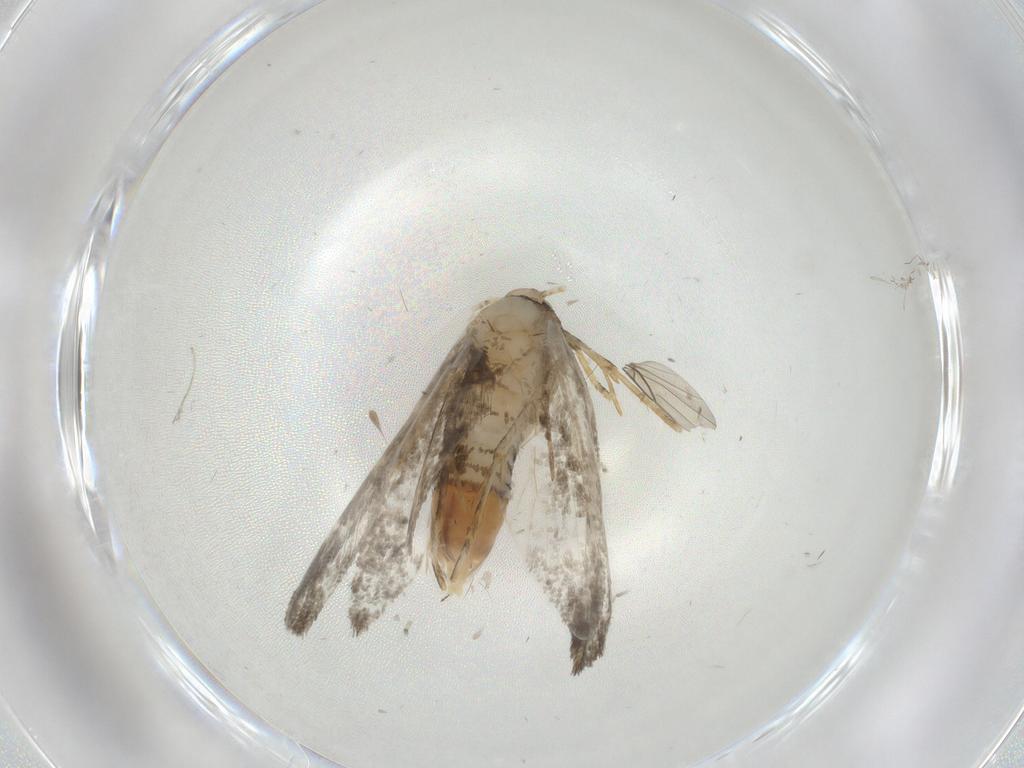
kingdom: Animalia
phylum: Arthropoda
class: Insecta
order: Lepidoptera
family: Psychidae
